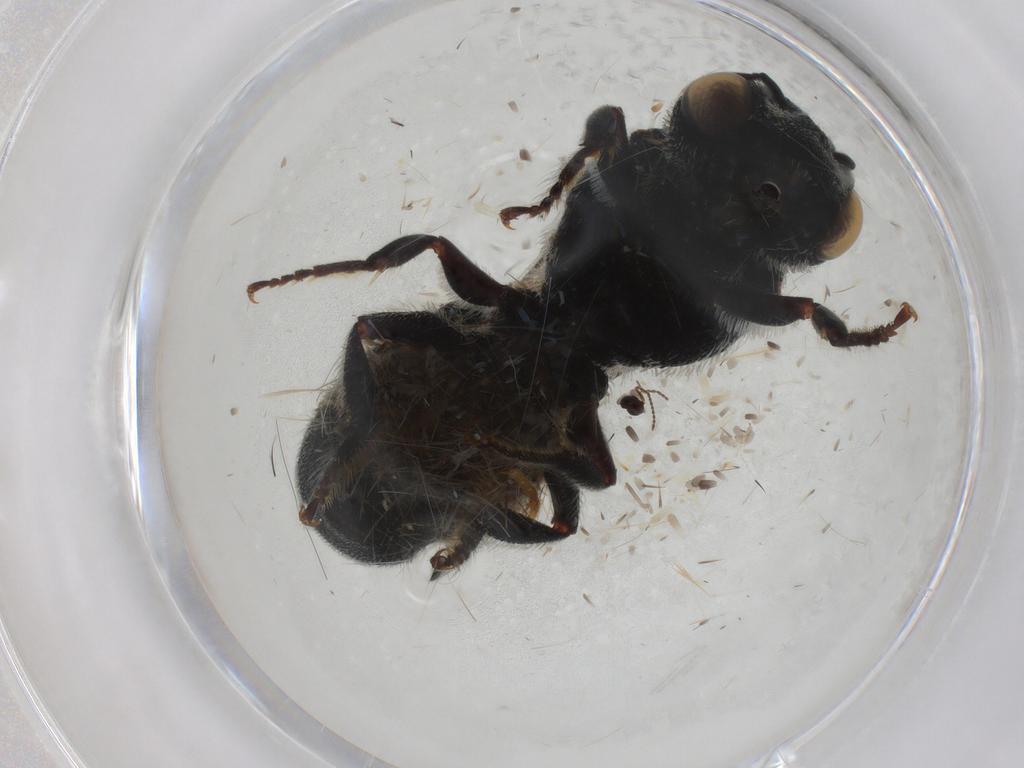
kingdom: Animalia
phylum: Arthropoda
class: Insecta
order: Hymenoptera
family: Megachilidae
